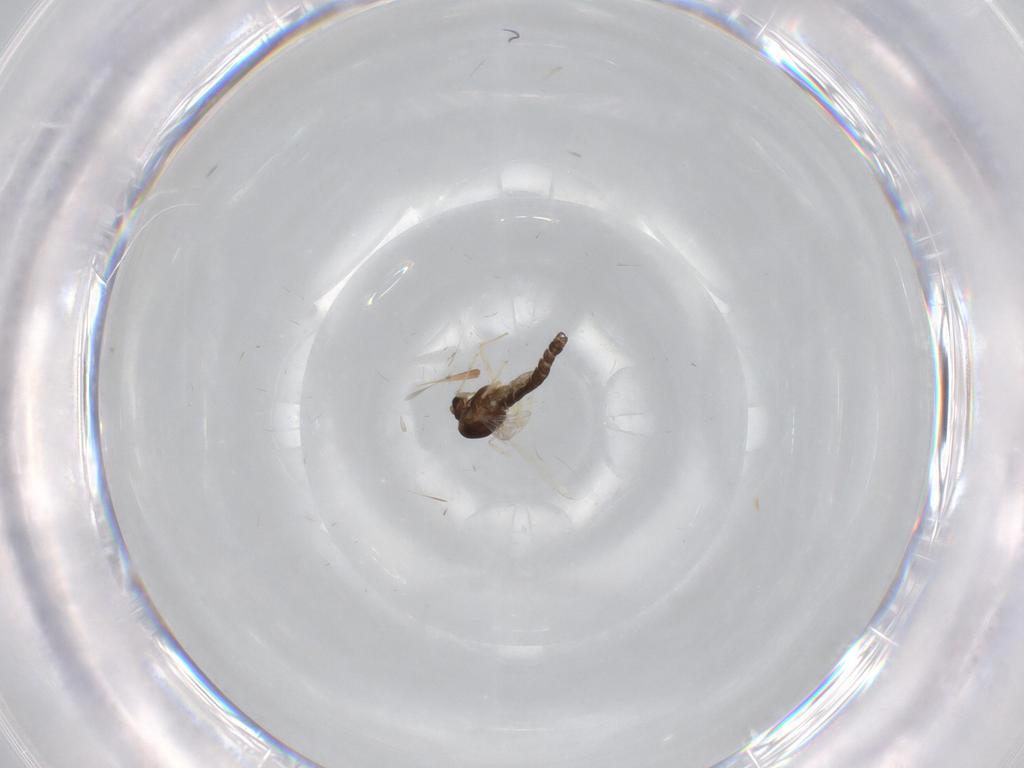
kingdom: Animalia
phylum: Arthropoda
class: Insecta
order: Diptera
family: Chironomidae
